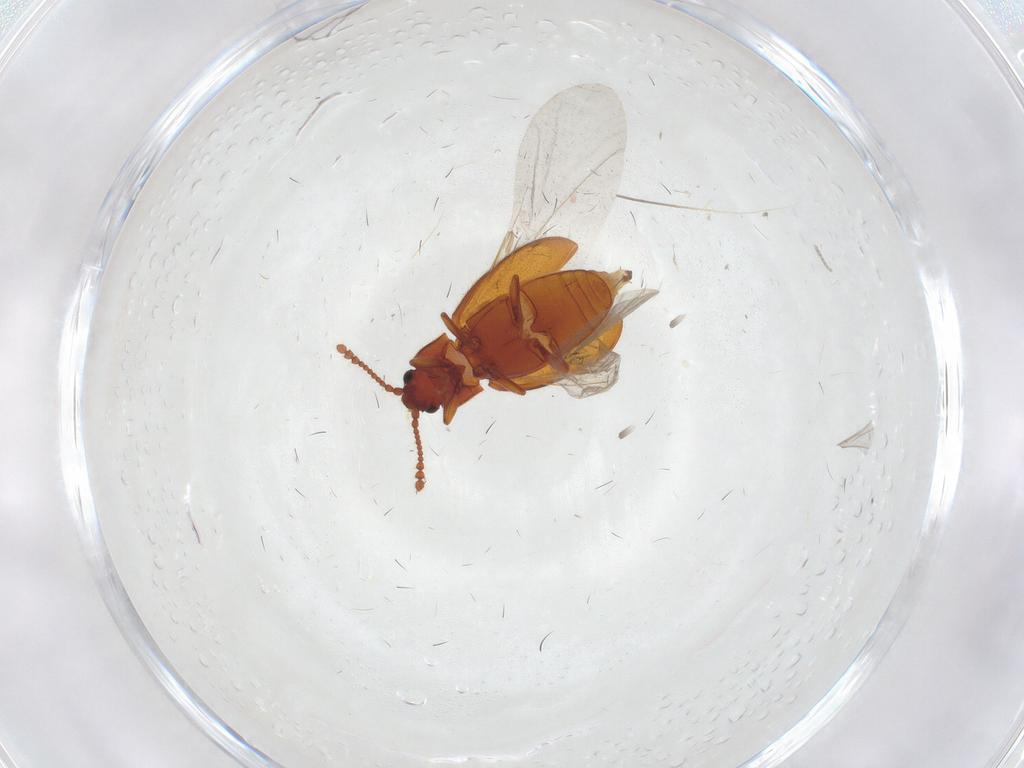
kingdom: Animalia
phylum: Arthropoda
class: Insecta
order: Coleoptera
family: Cryptophagidae
